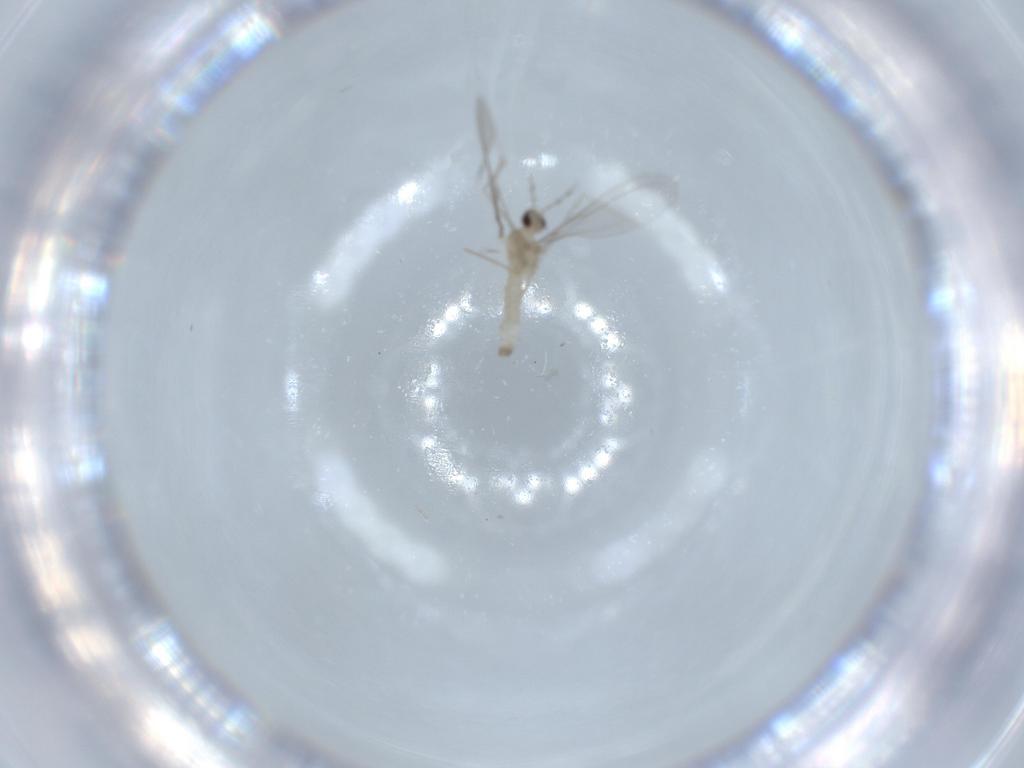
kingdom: Animalia
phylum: Arthropoda
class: Insecta
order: Diptera
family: Cecidomyiidae
